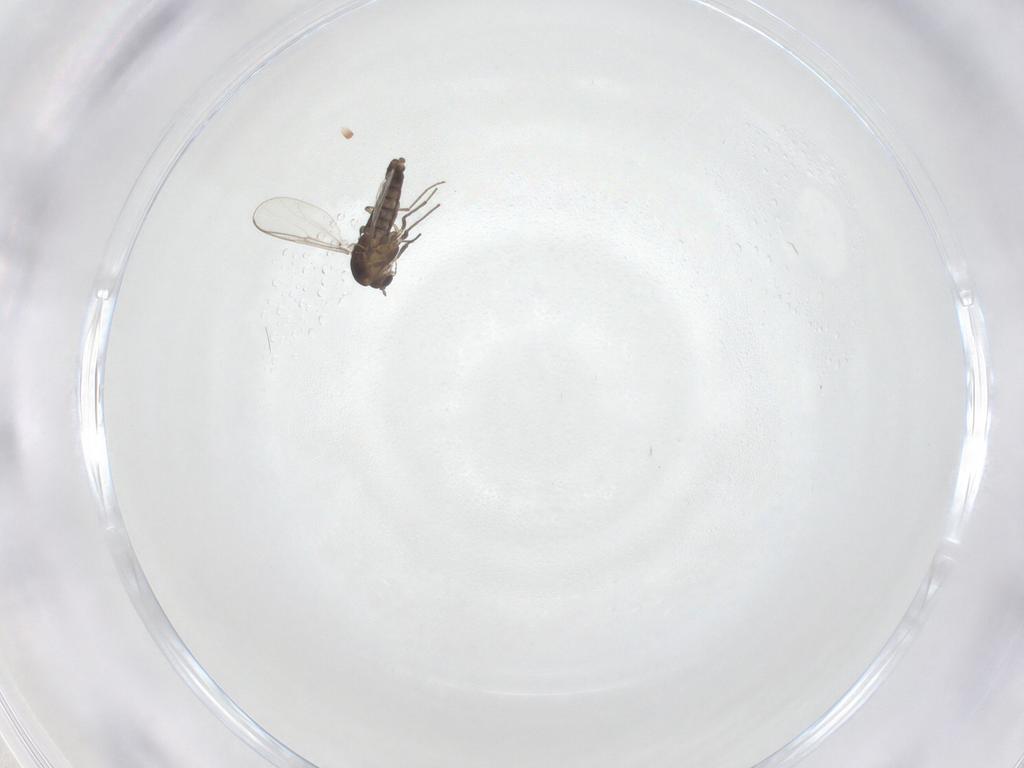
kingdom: Animalia
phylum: Arthropoda
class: Insecta
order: Diptera
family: Chironomidae
